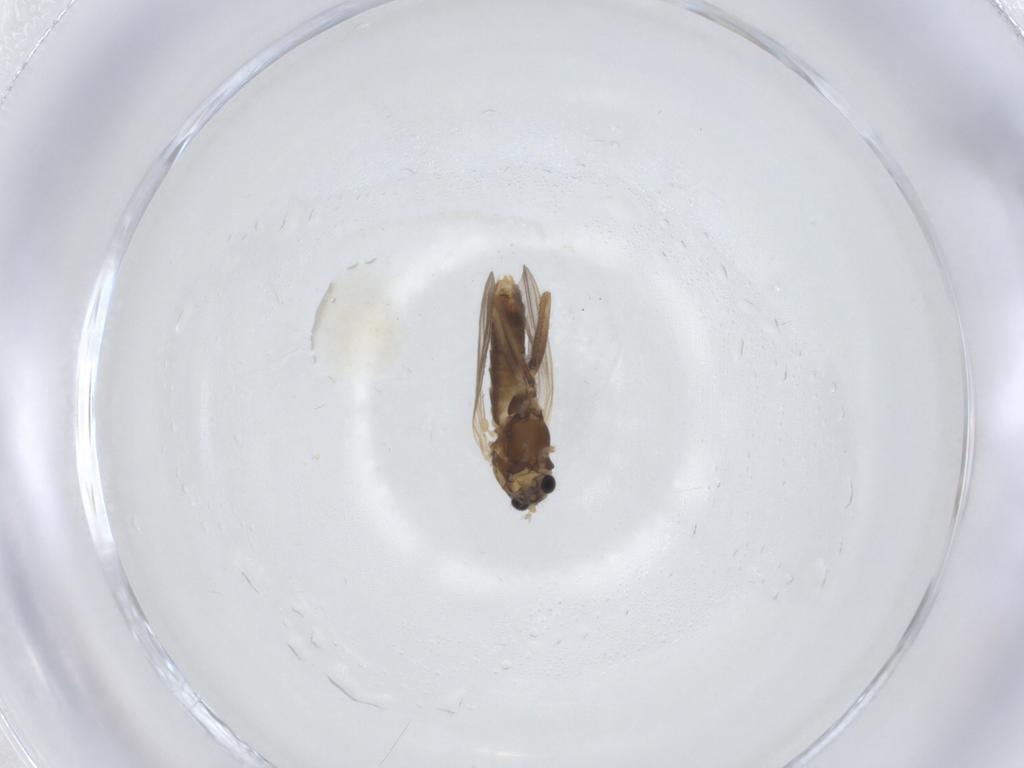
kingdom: Animalia
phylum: Arthropoda
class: Insecta
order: Diptera
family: Chironomidae
